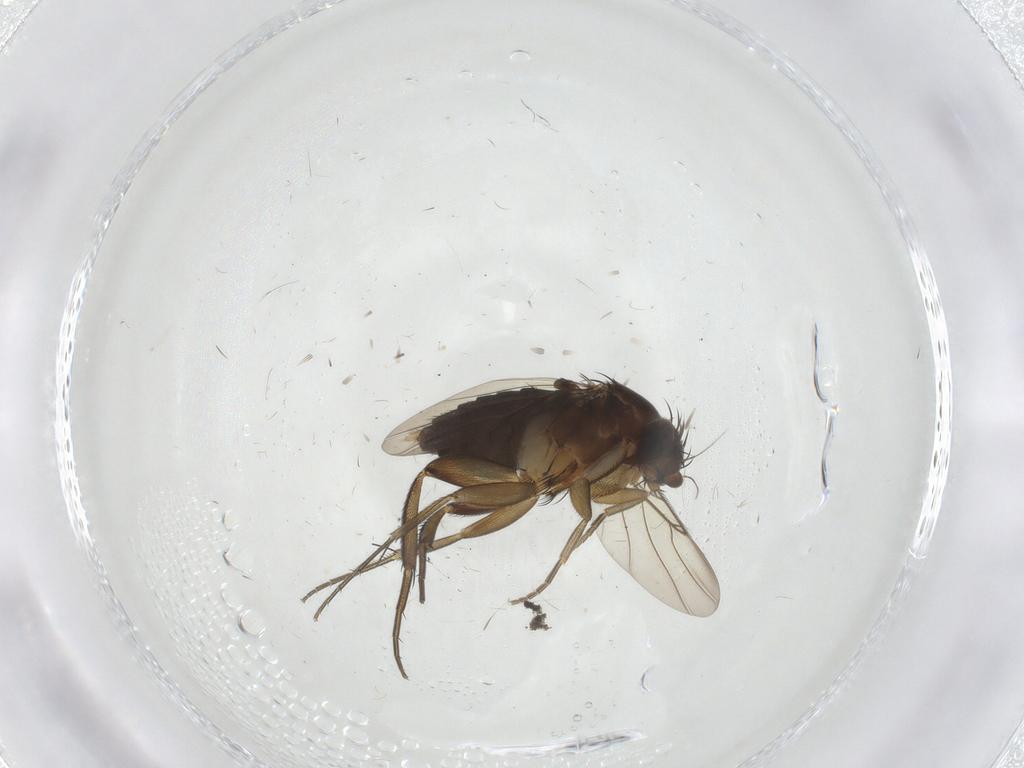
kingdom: Animalia
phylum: Arthropoda
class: Insecta
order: Diptera
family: Phoridae
